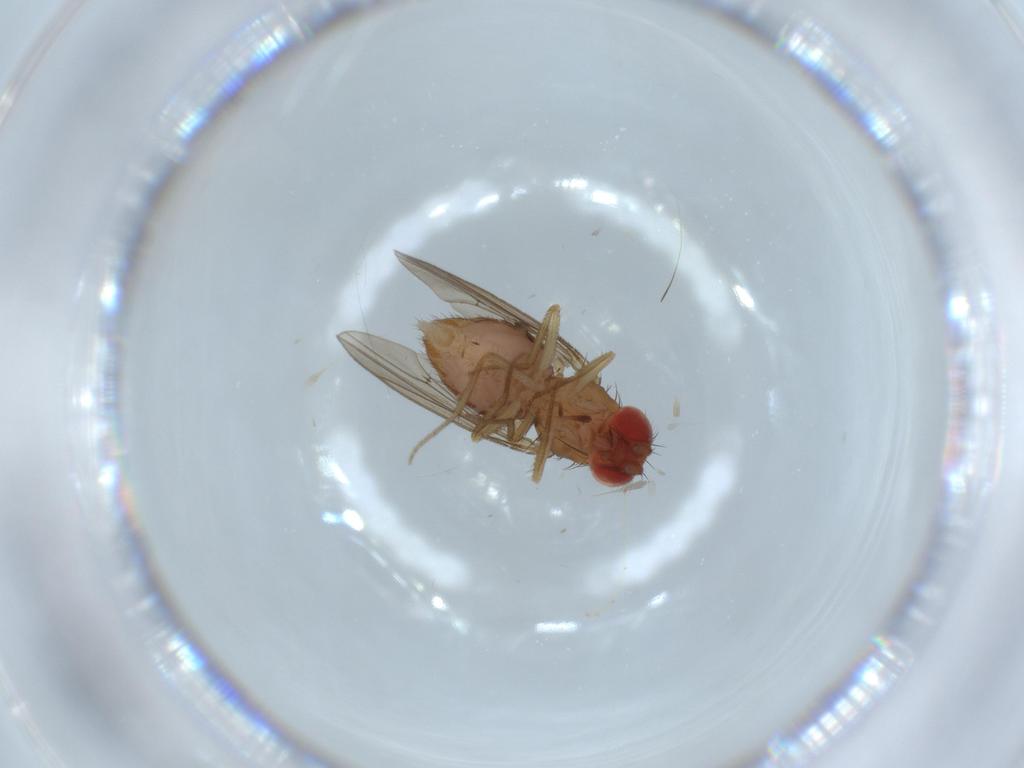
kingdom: Animalia
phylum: Arthropoda
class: Insecta
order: Diptera
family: Drosophilidae
